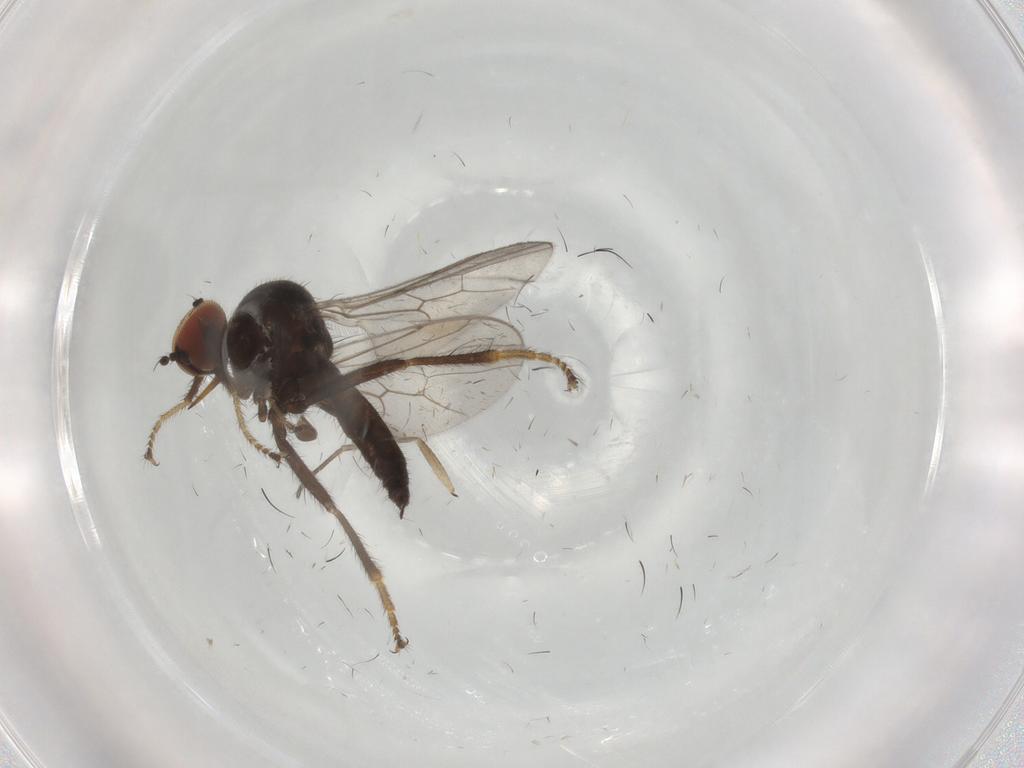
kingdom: Animalia
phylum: Arthropoda
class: Insecta
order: Diptera
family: Hybotidae
